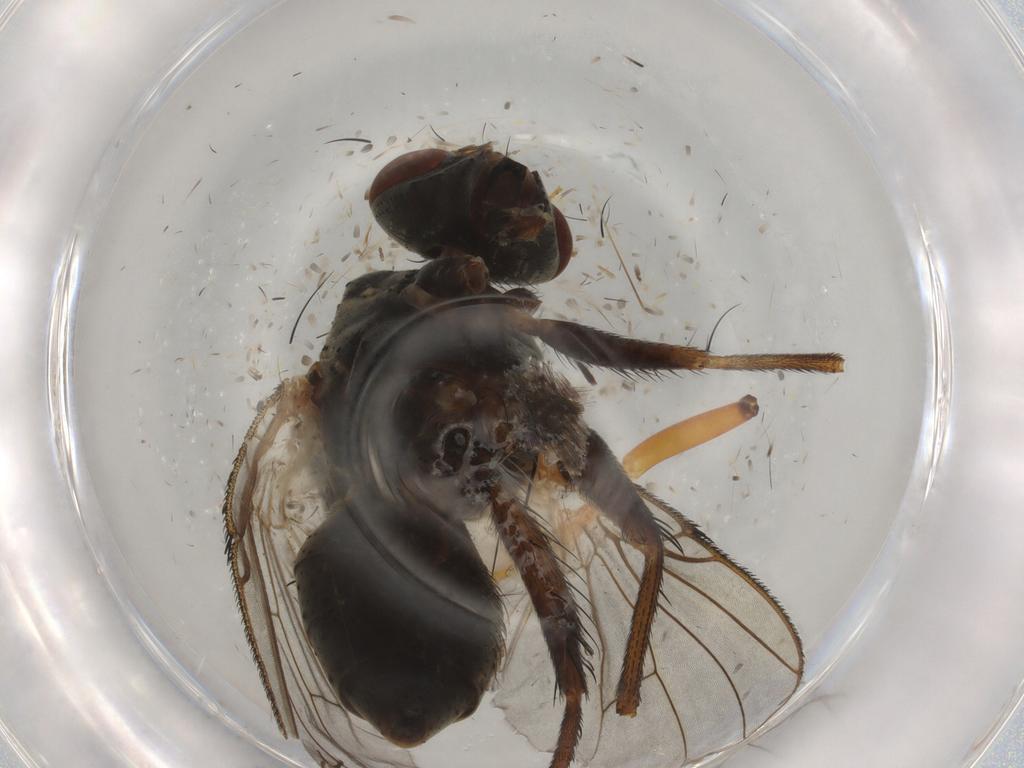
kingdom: Animalia
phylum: Arthropoda
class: Insecta
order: Diptera
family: Muscidae
